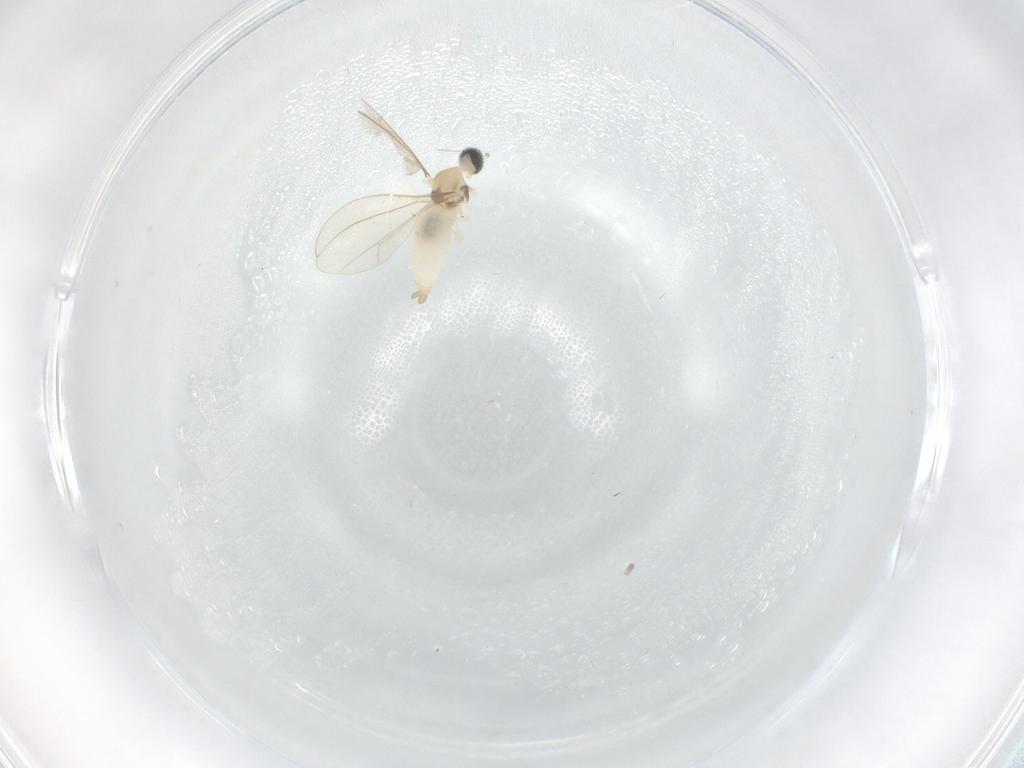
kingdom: Animalia
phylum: Arthropoda
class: Insecta
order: Diptera
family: Cecidomyiidae
